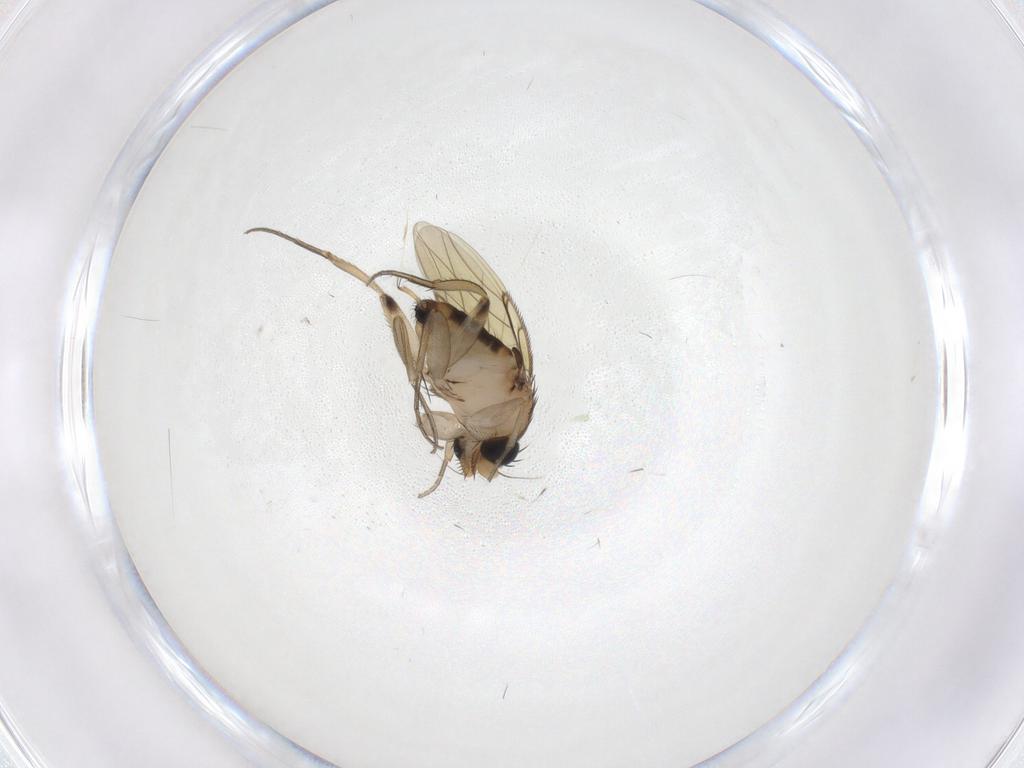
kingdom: Animalia
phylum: Arthropoda
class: Insecta
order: Diptera
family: Phoridae
